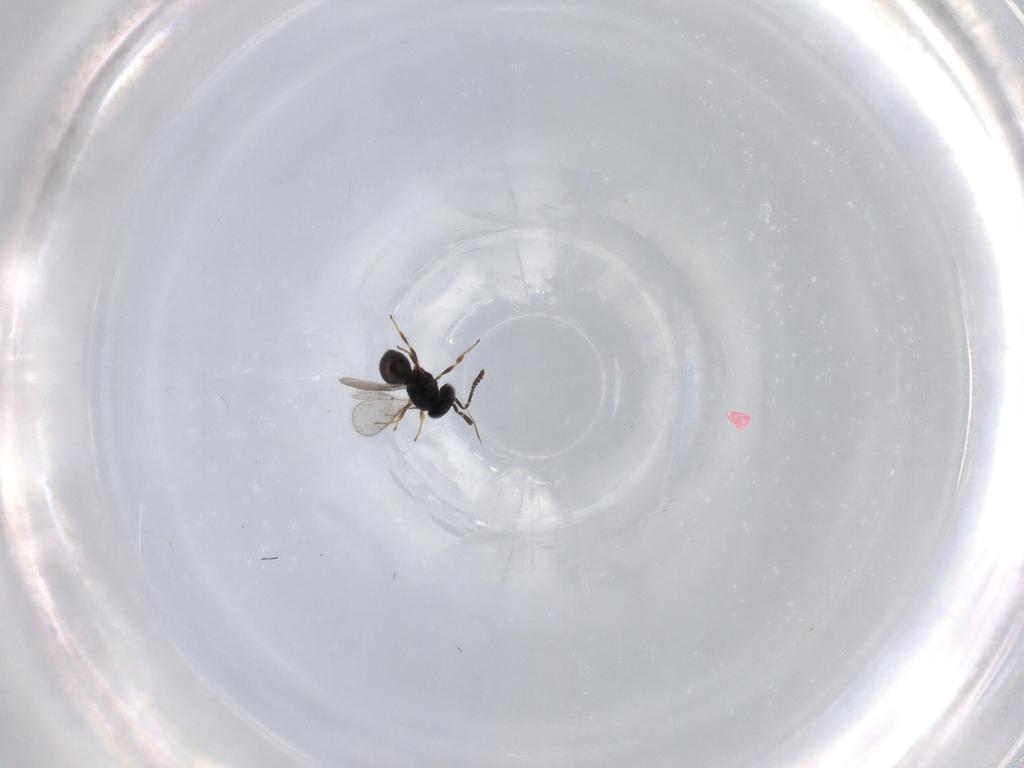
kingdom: Animalia
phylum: Arthropoda
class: Insecta
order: Hymenoptera
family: Scelionidae
